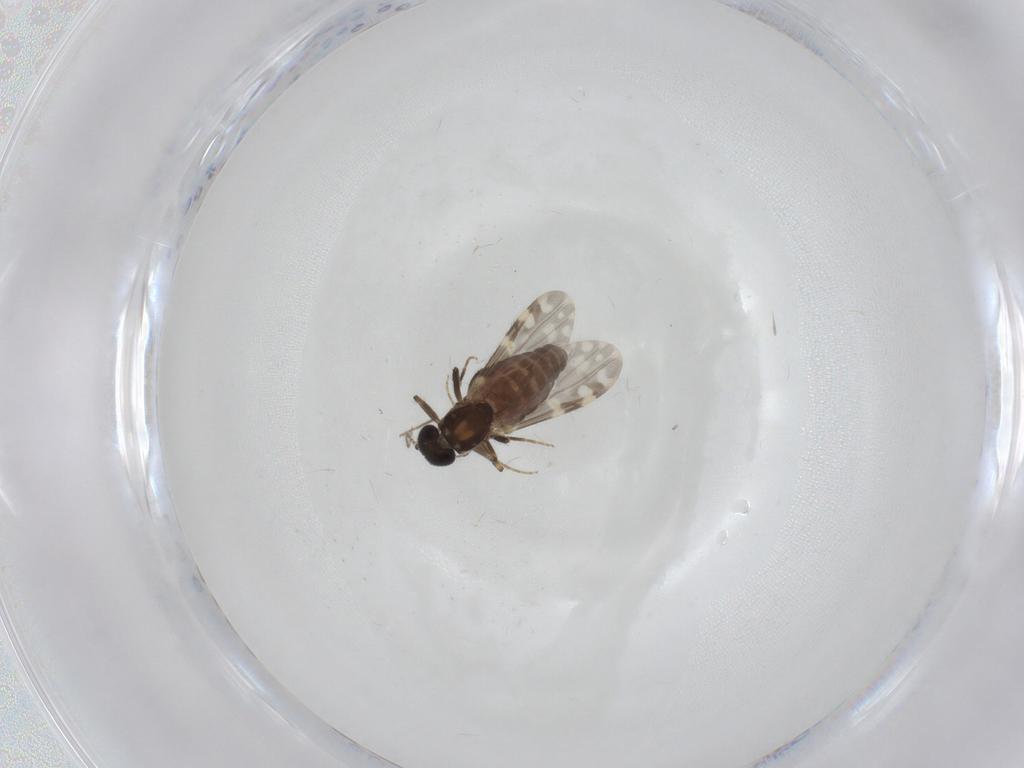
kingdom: Animalia
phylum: Arthropoda
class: Insecta
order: Diptera
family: Ceratopogonidae
